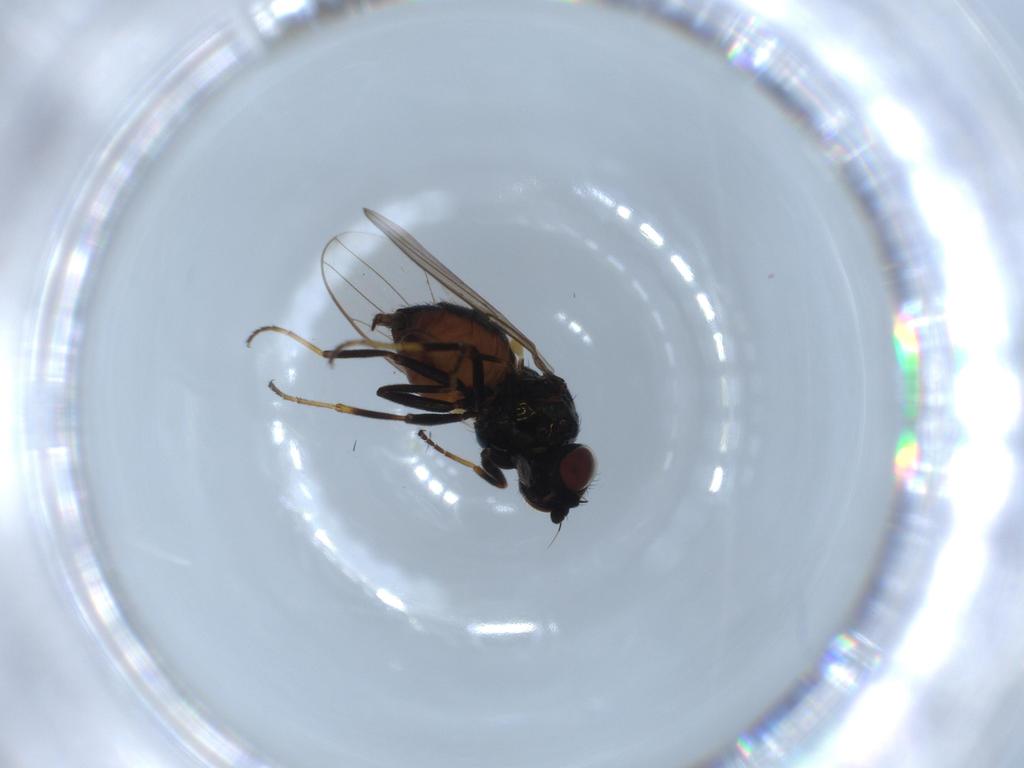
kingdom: Animalia
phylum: Arthropoda
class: Insecta
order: Diptera
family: Chloropidae
